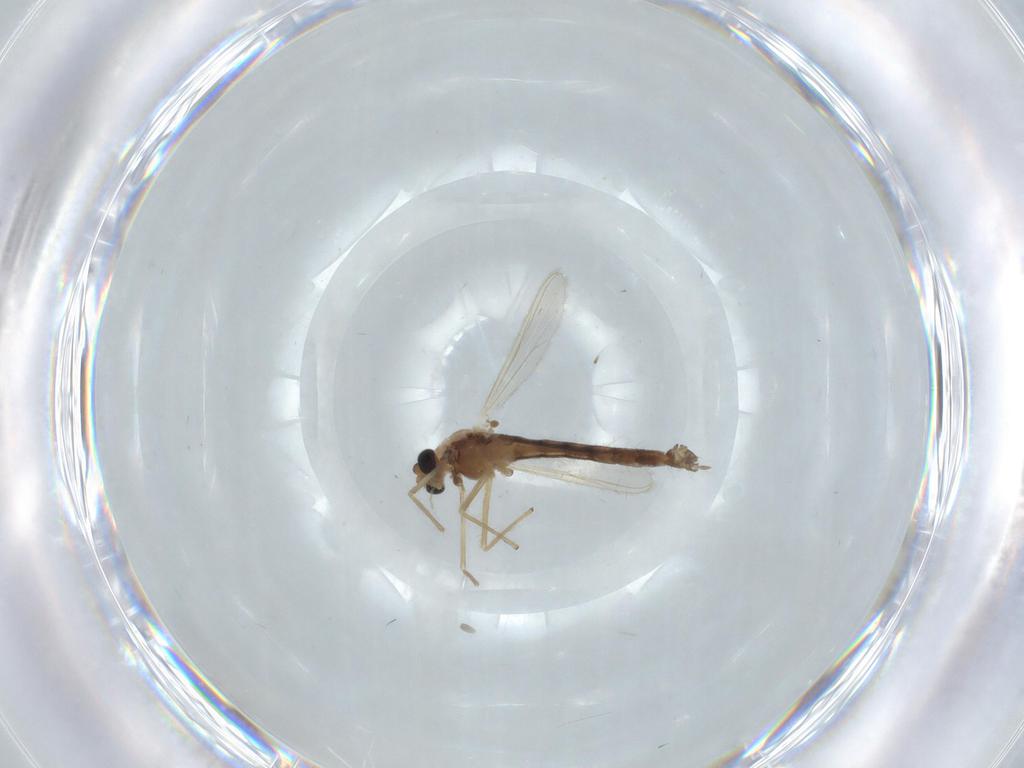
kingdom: Animalia
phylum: Arthropoda
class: Insecta
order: Diptera
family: Chironomidae
